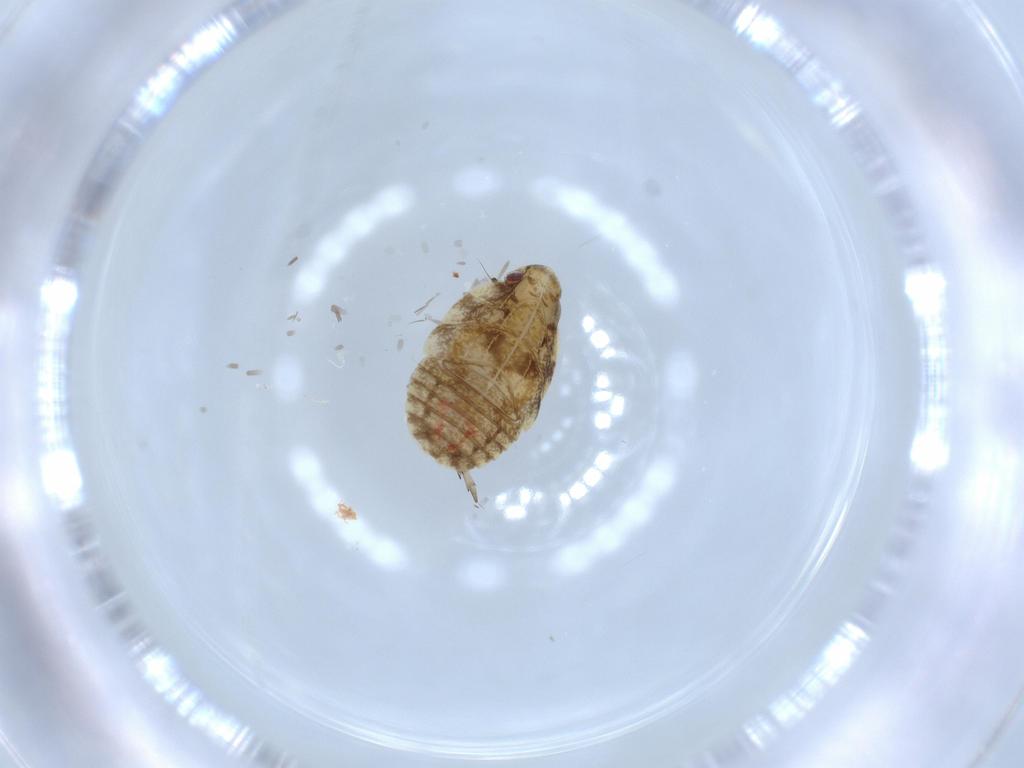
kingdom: Animalia
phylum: Arthropoda
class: Insecta
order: Hemiptera
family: Flatidae
